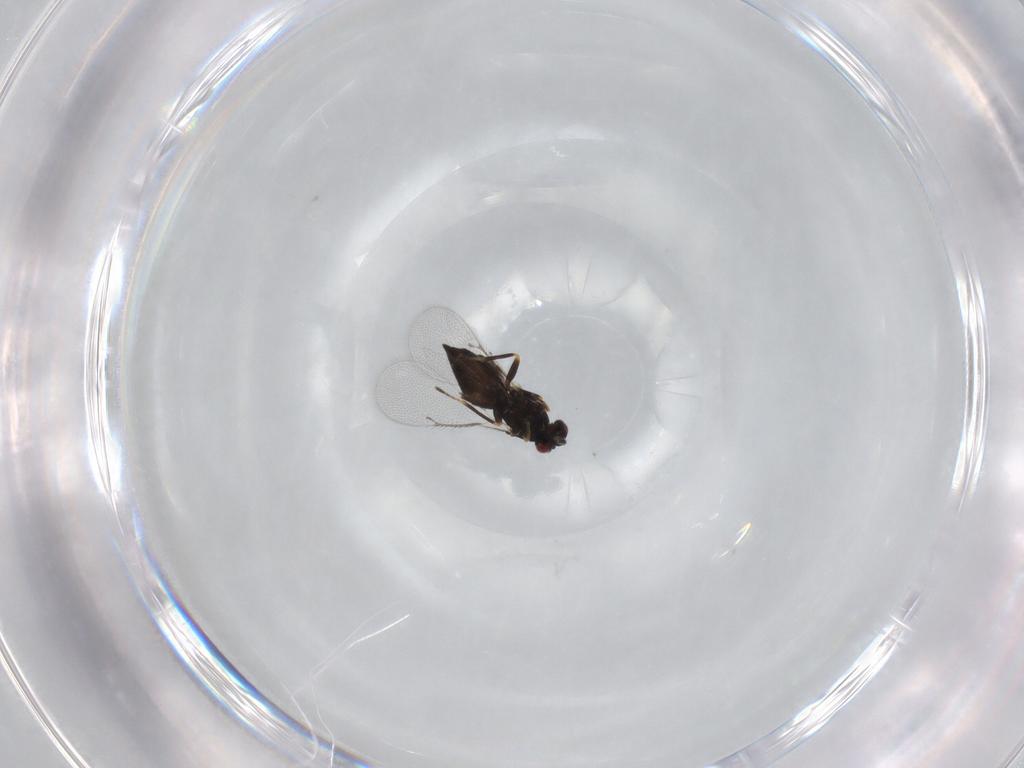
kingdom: Animalia
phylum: Arthropoda
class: Insecta
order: Hymenoptera
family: Eulophidae
